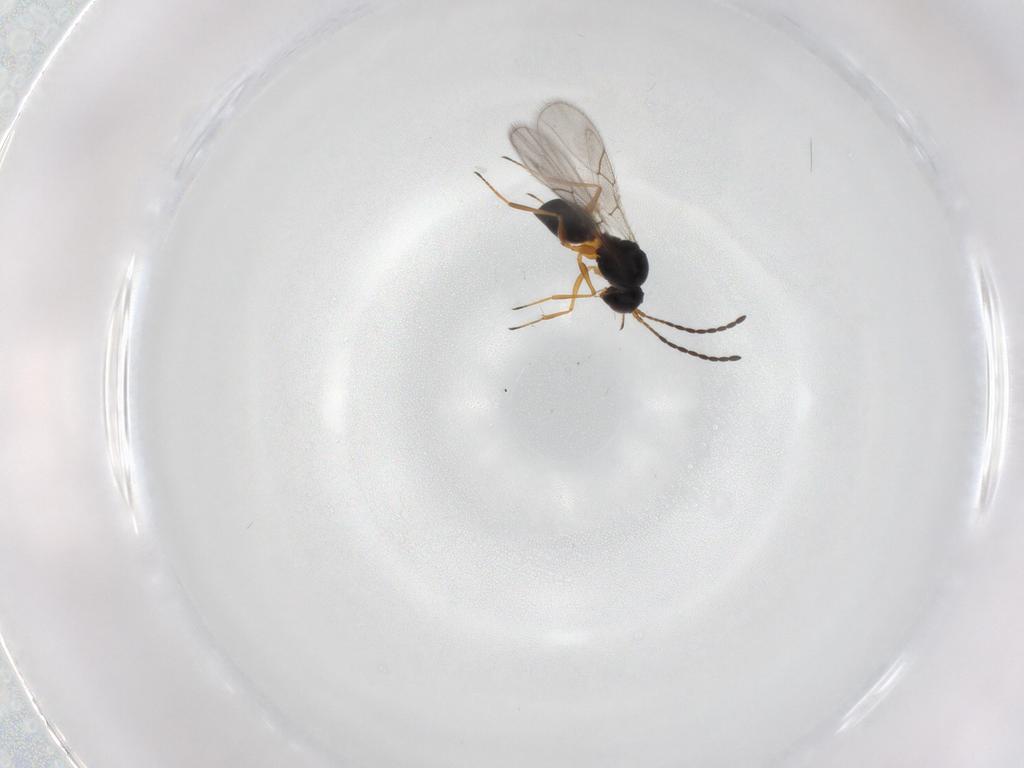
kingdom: Animalia
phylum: Arthropoda
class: Insecta
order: Hymenoptera
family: Figitidae
